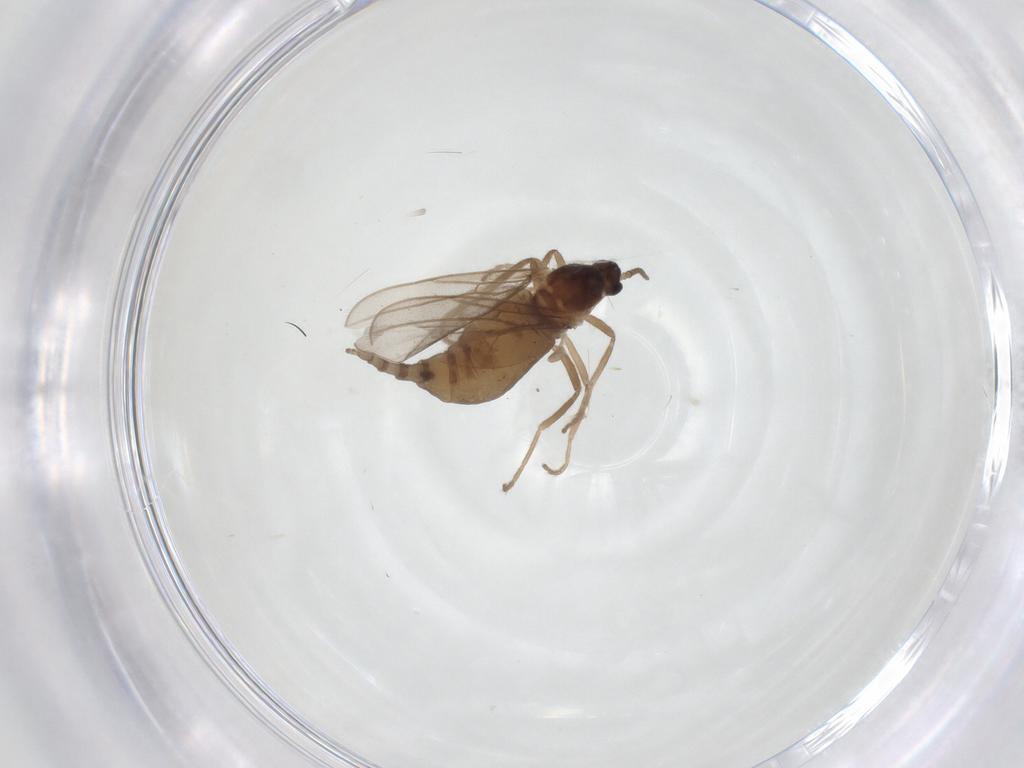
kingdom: Animalia
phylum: Arthropoda
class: Insecta
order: Diptera
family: Cecidomyiidae
